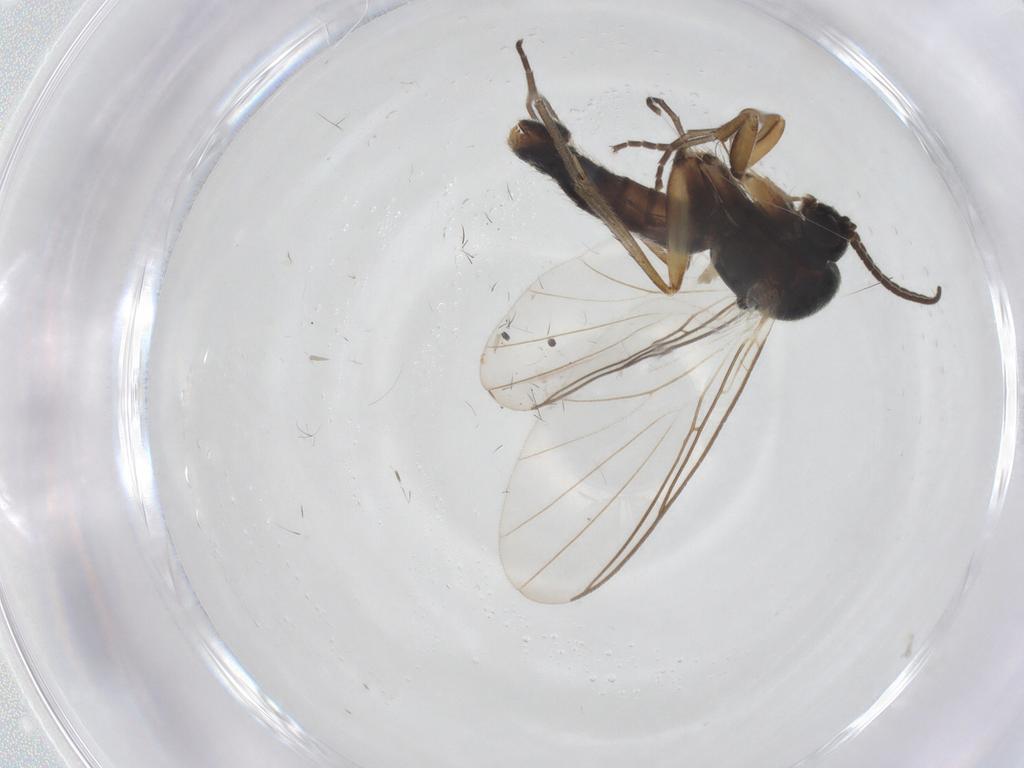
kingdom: Animalia
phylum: Arthropoda
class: Insecta
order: Diptera
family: Mycetophilidae
